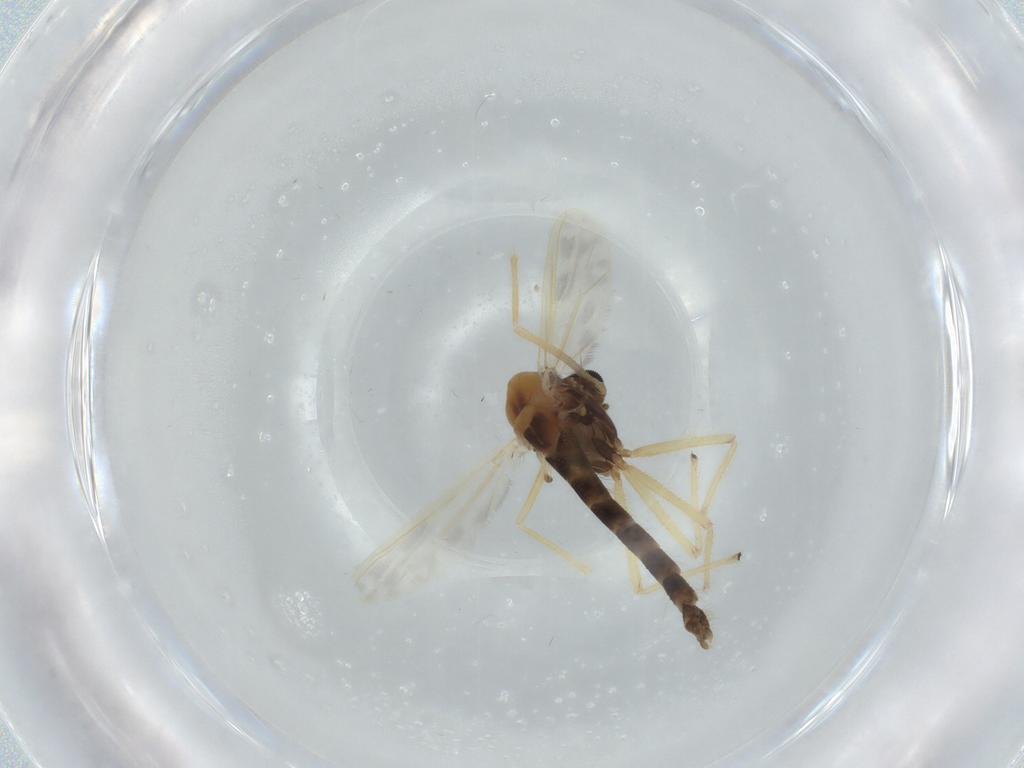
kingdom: Animalia
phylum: Arthropoda
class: Insecta
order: Diptera
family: Chironomidae
